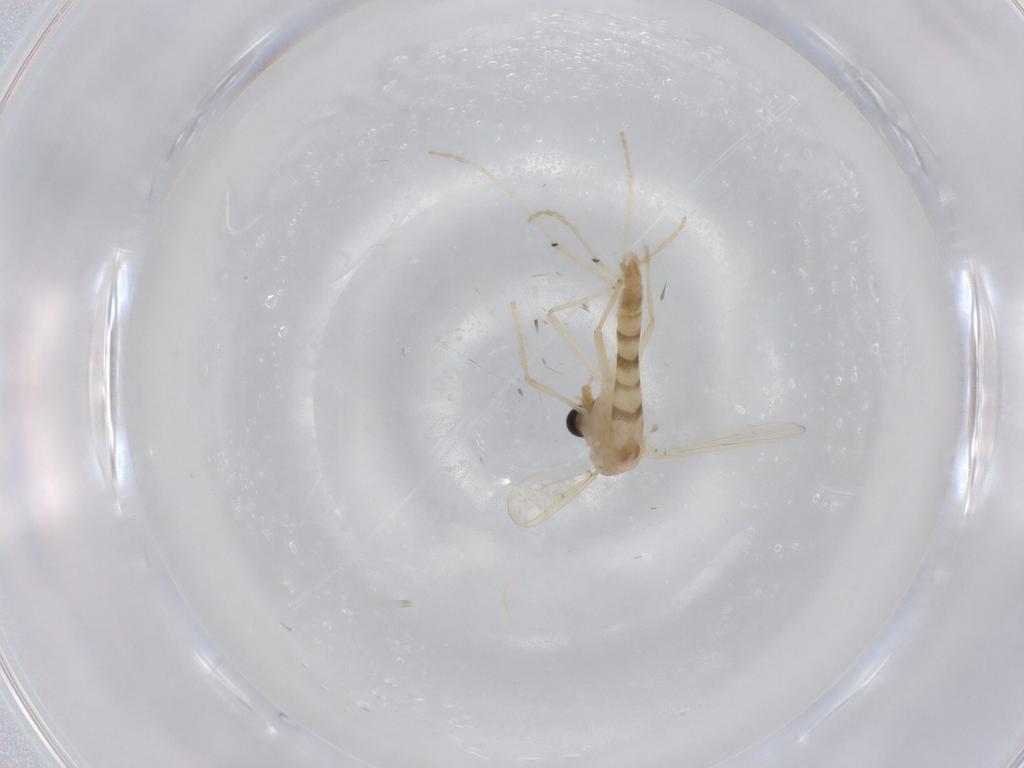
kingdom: Animalia
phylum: Arthropoda
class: Insecta
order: Diptera
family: Chironomidae
